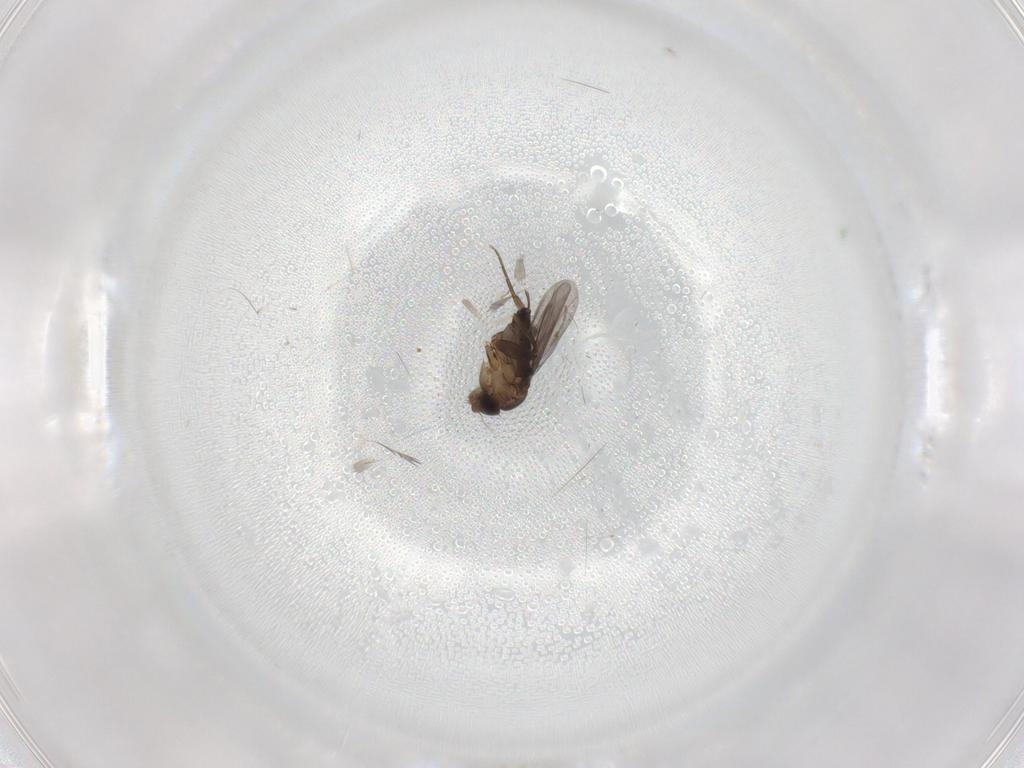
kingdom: Animalia
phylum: Arthropoda
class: Insecta
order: Diptera
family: Phoridae
